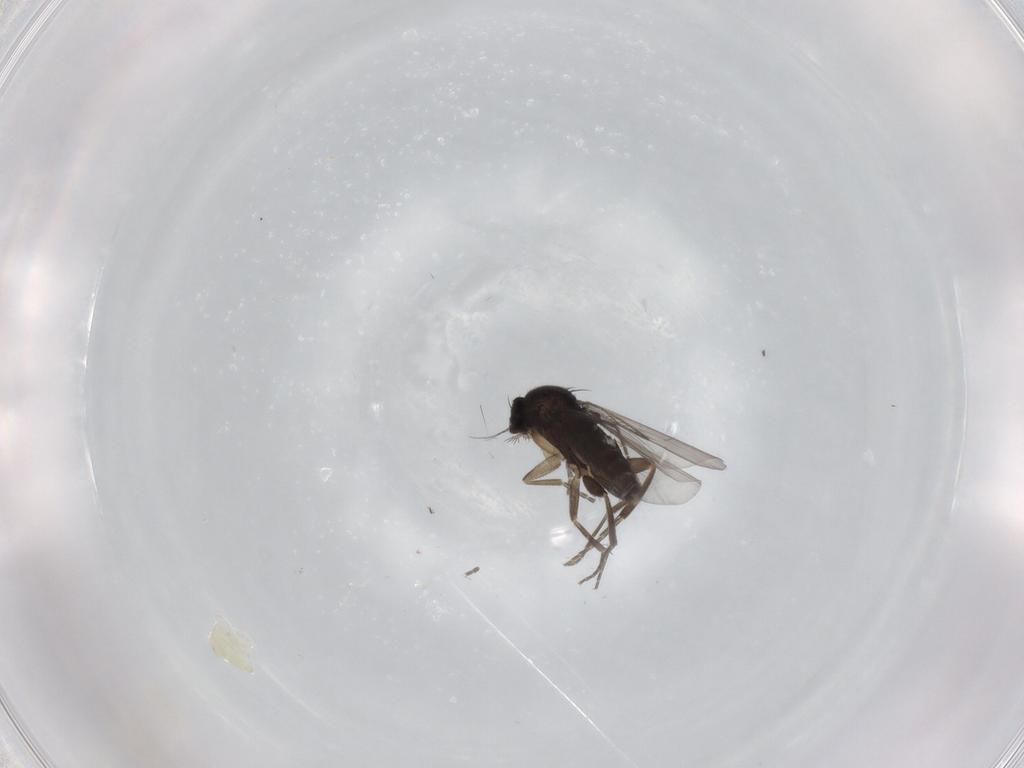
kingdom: Animalia
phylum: Arthropoda
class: Insecta
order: Diptera
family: Phoridae
